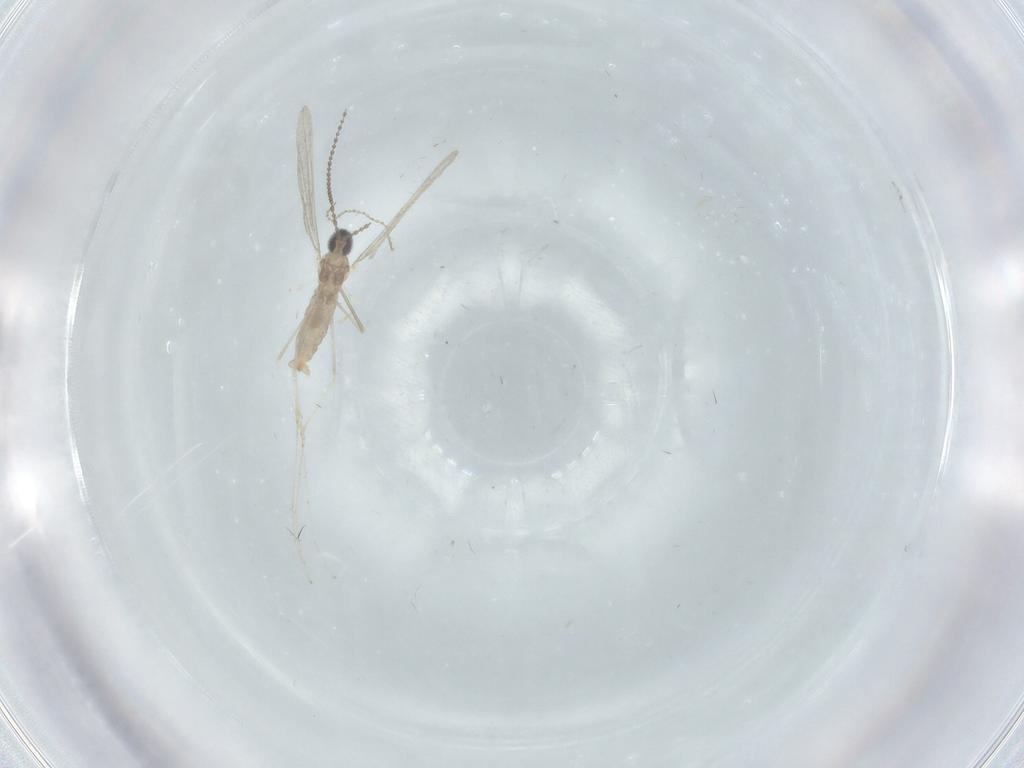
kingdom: Animalia
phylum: Arthropoda
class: Insecta
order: Diptera
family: Cecidomyiidae
